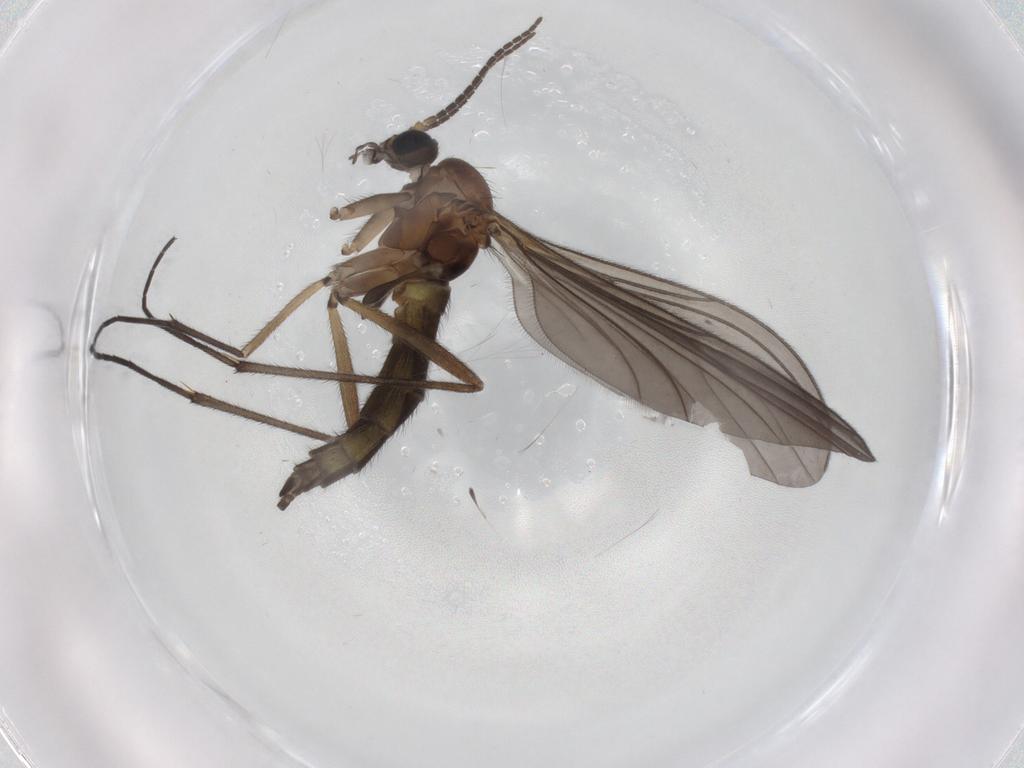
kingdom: Animalia
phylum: Arthropoda
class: Insecta
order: Diptera
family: Sciaridae
